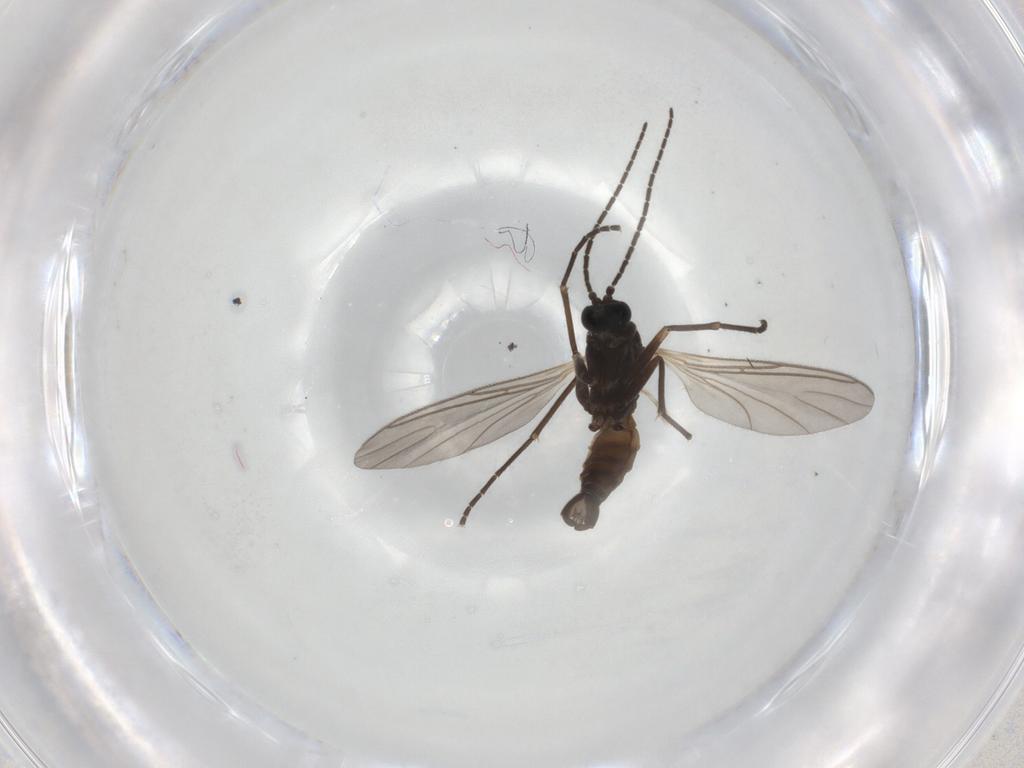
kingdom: Animalia
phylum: Arthropoda
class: Insecta
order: Diptera
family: Sciaridae
